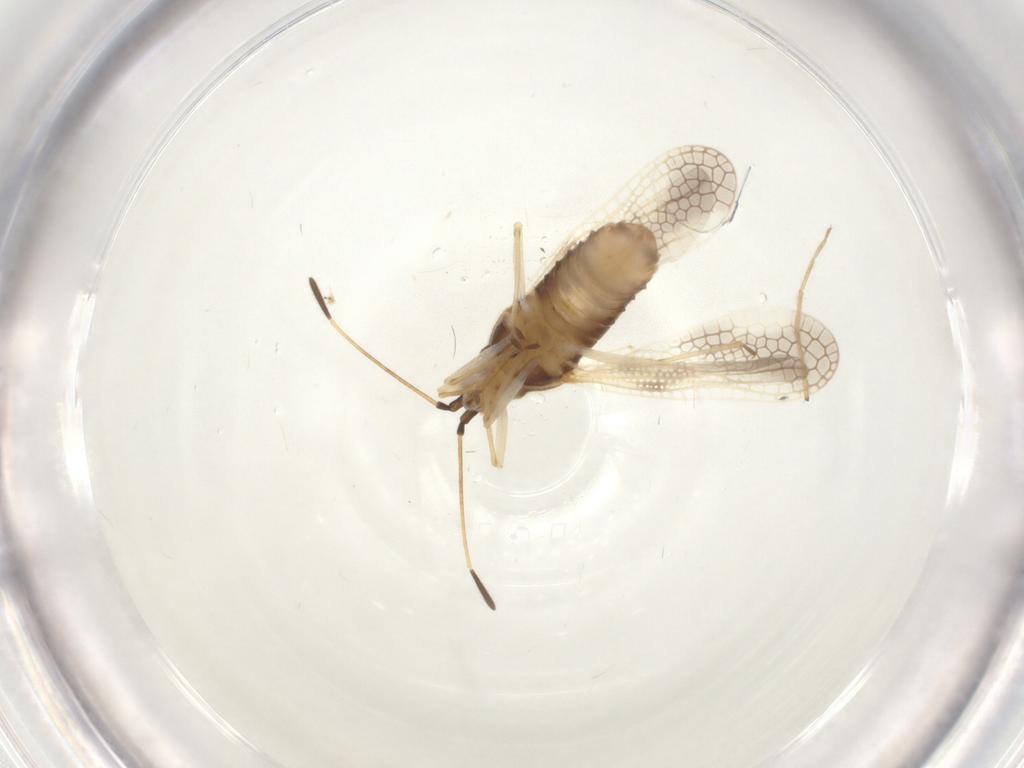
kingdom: Animalia
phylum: Arthropoda
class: Insecta
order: Hemiptera
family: Tingidae
